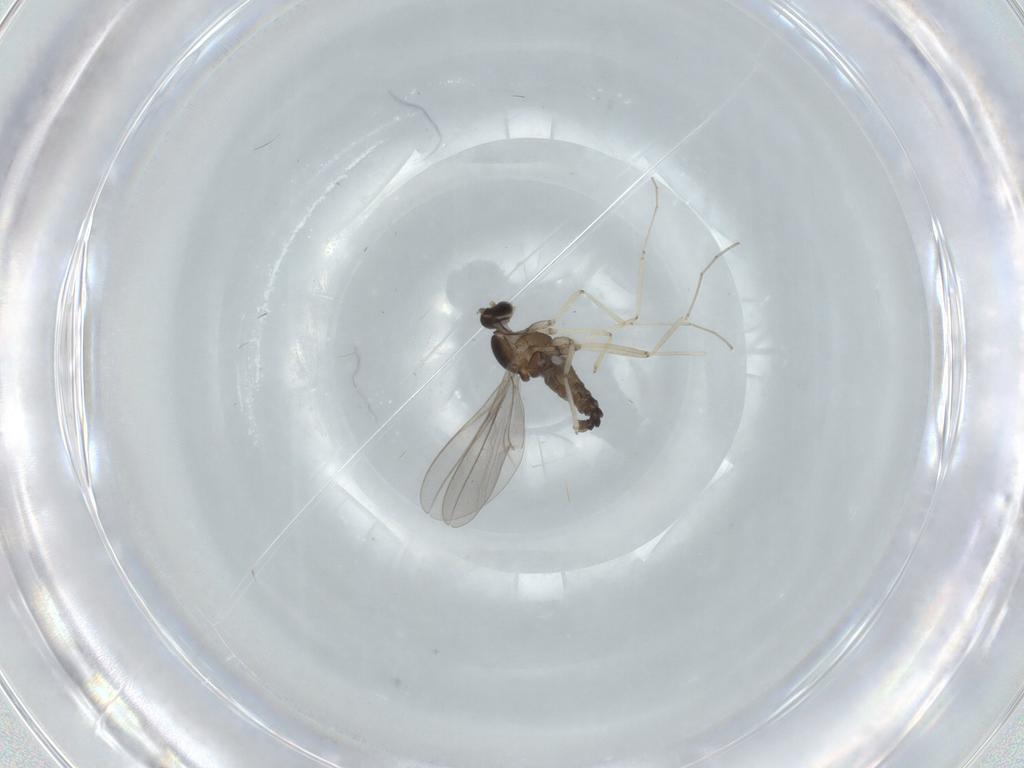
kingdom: Animalia
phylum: Arthropoda
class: Insecta
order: Diptera
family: Cecidomyiidae
